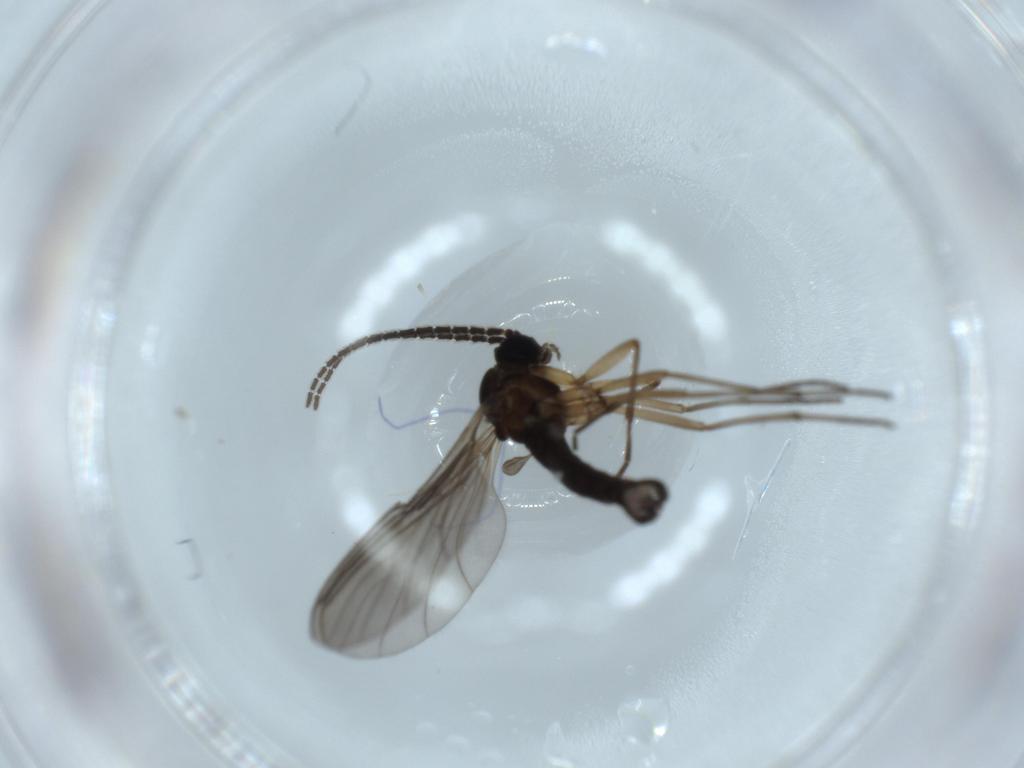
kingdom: Animalia
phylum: Arthropoda
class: Insecta
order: Diptera
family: Sciaridae
